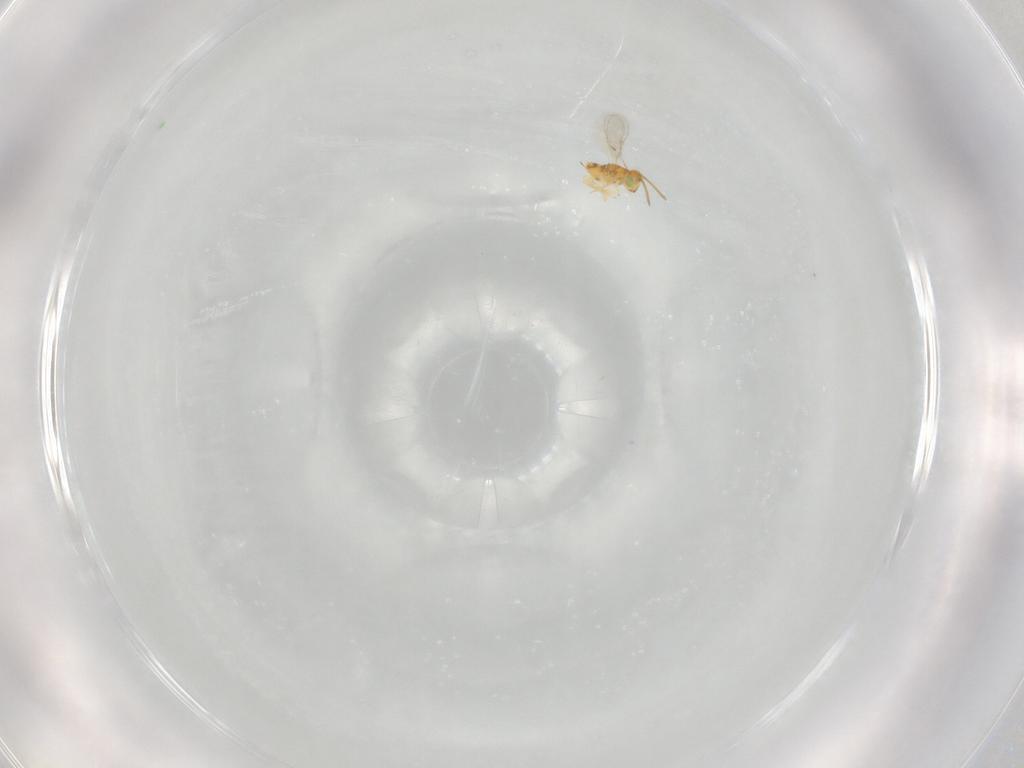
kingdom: Animalia
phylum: Arthropoda
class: Insecta
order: Hymenoptera
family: Aphelinidae
